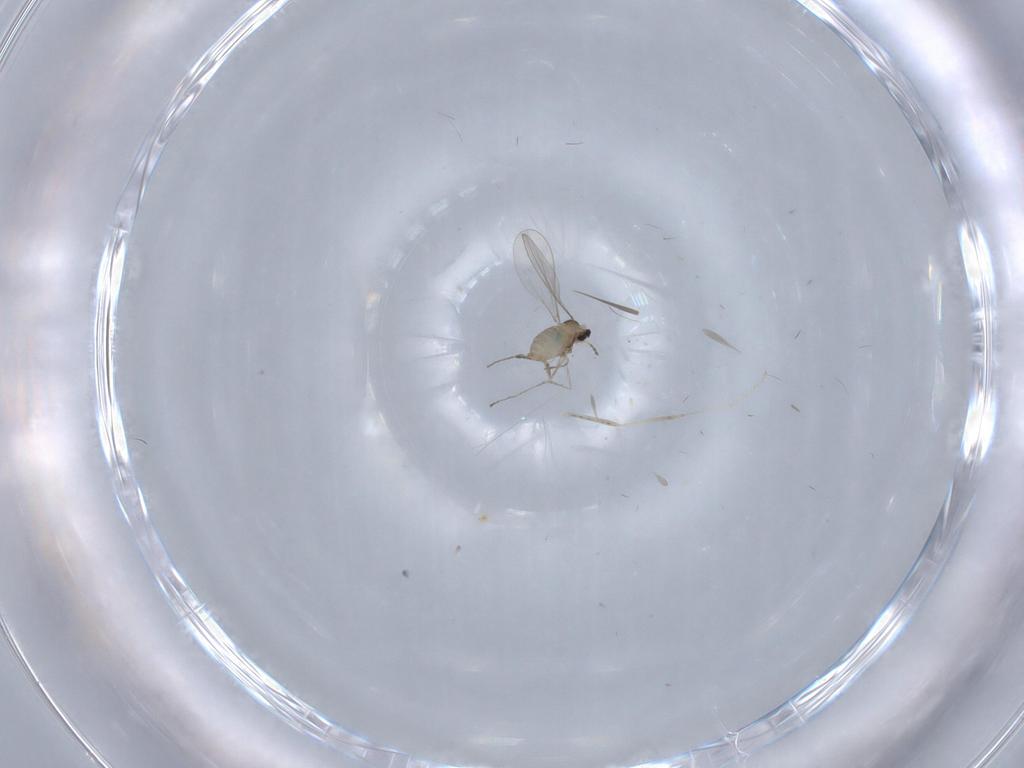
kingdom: Animalia
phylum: Arthropoda
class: Insecta
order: Diptera
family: Cecidomyiidae
